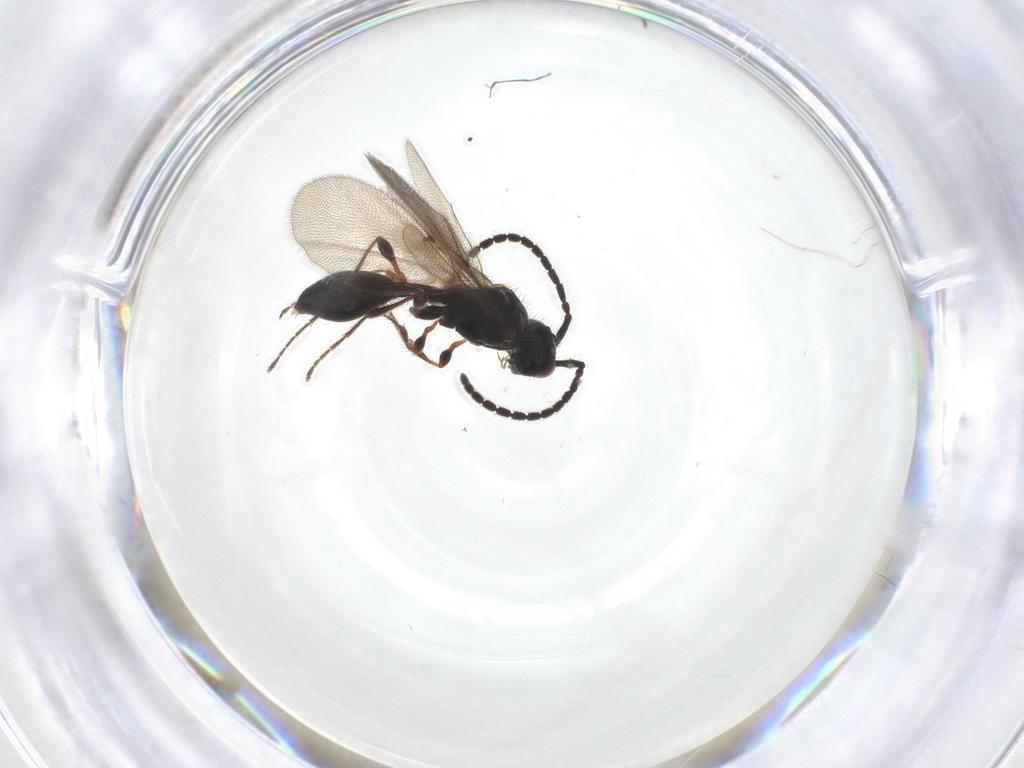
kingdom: Animalia
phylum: Arthropoda
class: Insecta
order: Hymenoptera
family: Diapriidae
